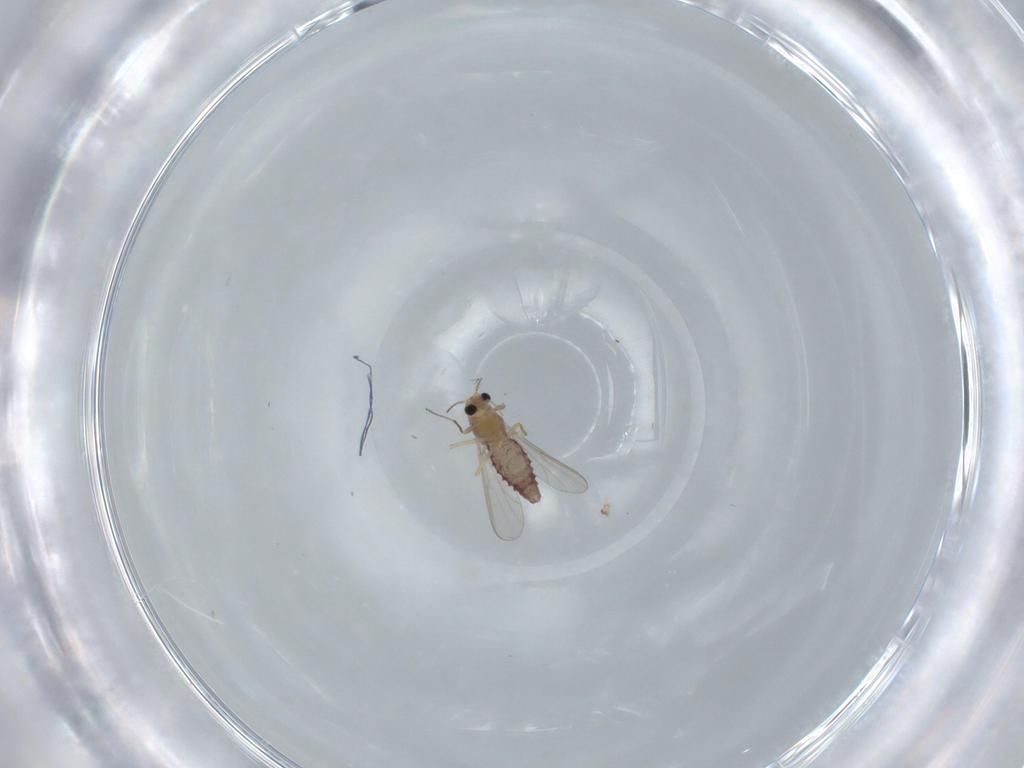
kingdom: Animalia
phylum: Arthropoda
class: Insecta
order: Diptera
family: Chironomidae
